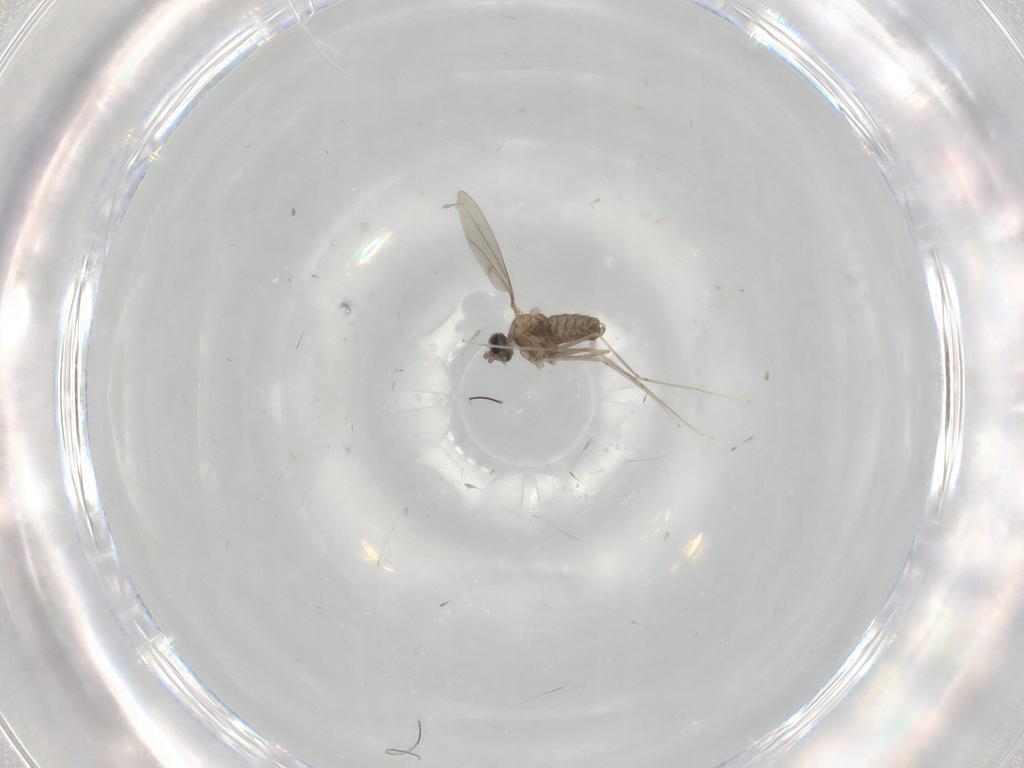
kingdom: Animalia
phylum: Arthropoda
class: Insecta
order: Diptera
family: Cecidomyiidae
